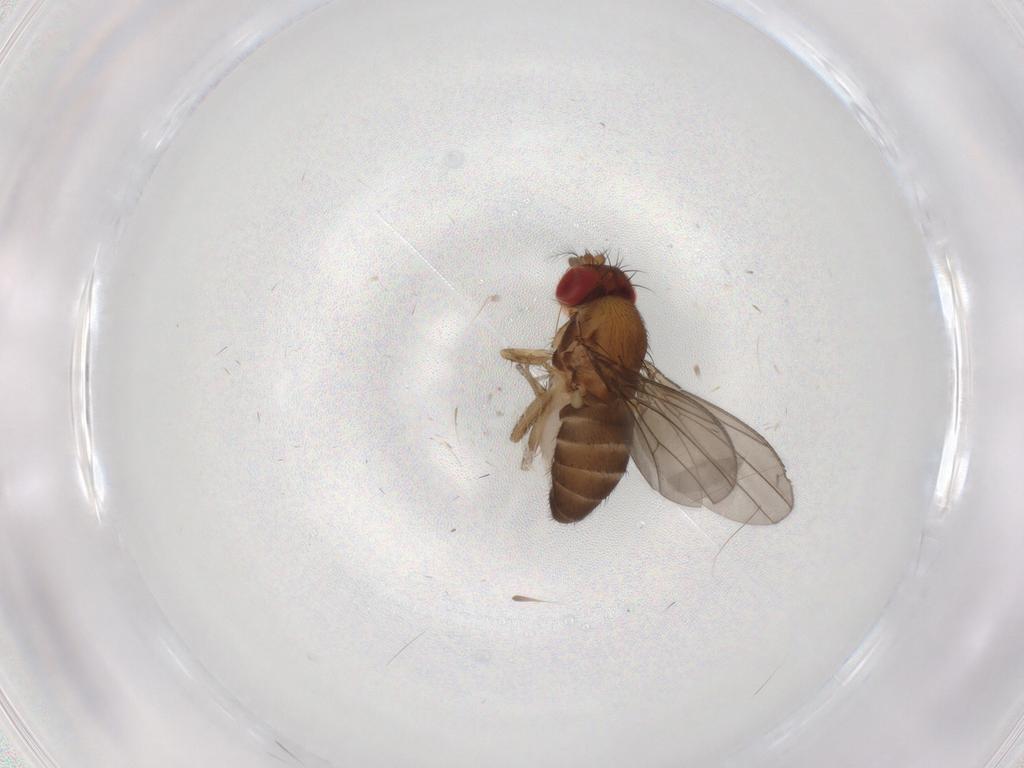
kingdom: Animalia
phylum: Arthropoda
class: Insecta
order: Diptera
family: Drosophilidae
